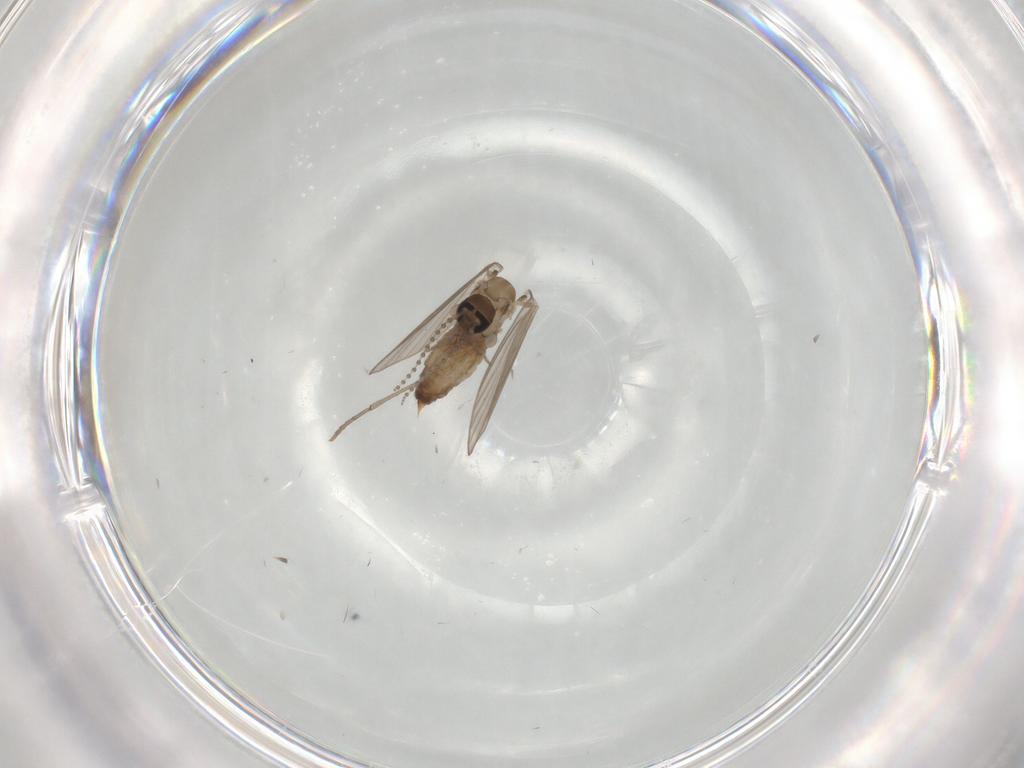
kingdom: Animalia
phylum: Arthropoda
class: Insecta
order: Diptera
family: Psychodidae
